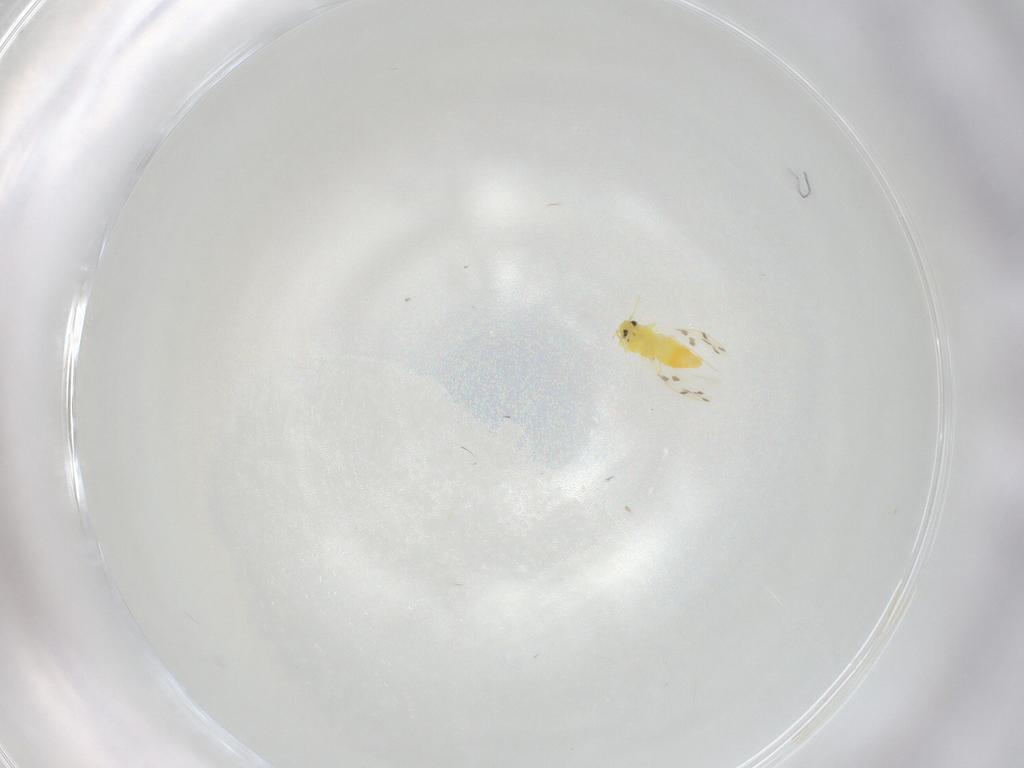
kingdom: Animalia
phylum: Arthropoda
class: Insecta
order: Hemiptera
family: Aleyrodidae
